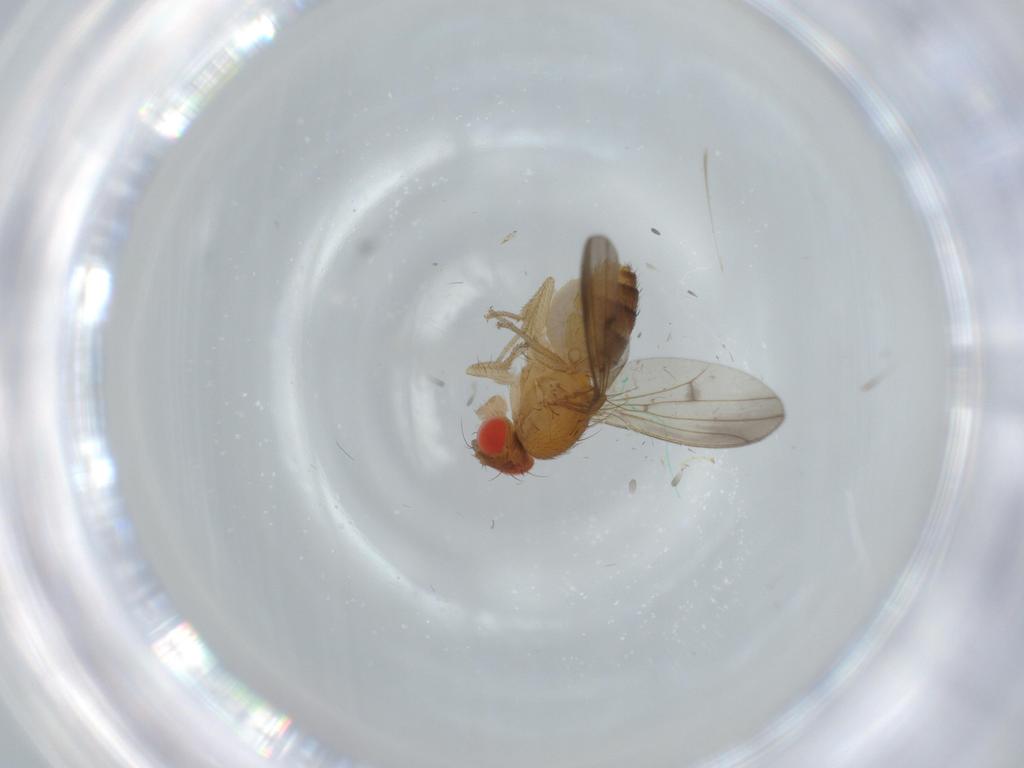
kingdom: Animalia
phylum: Arthropoda
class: Insecta
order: Diptera
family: Drosophilidae
